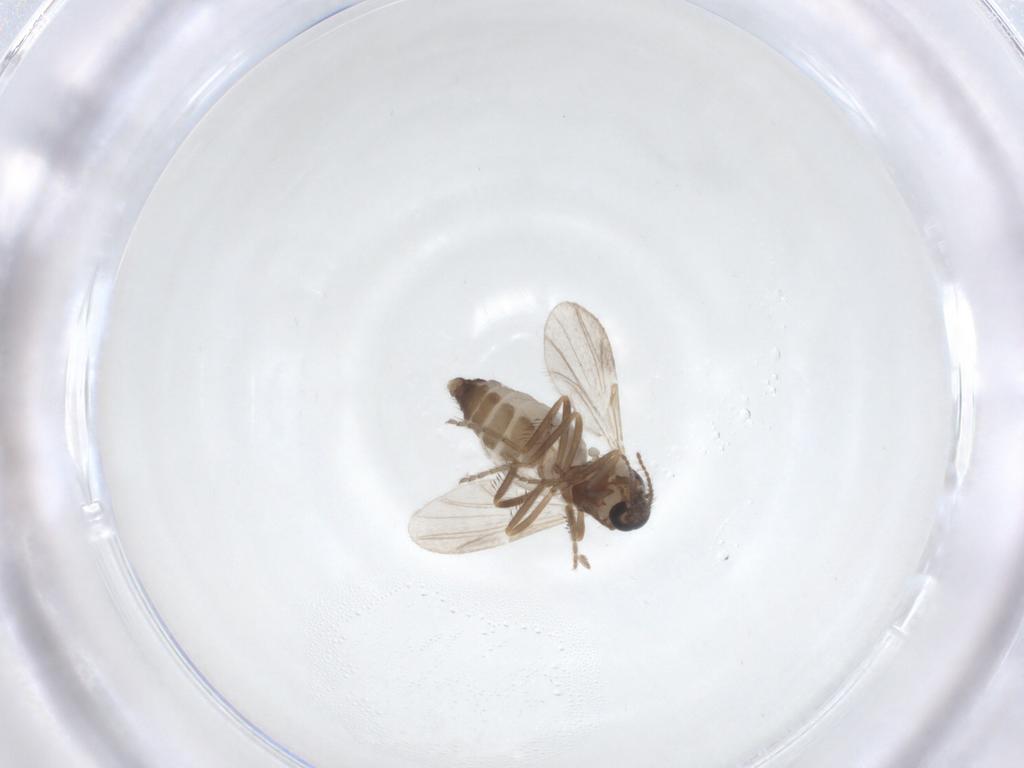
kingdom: Animalia
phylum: Arthropoda
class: Insecta
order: Diptera
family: Ceratopogonidae
